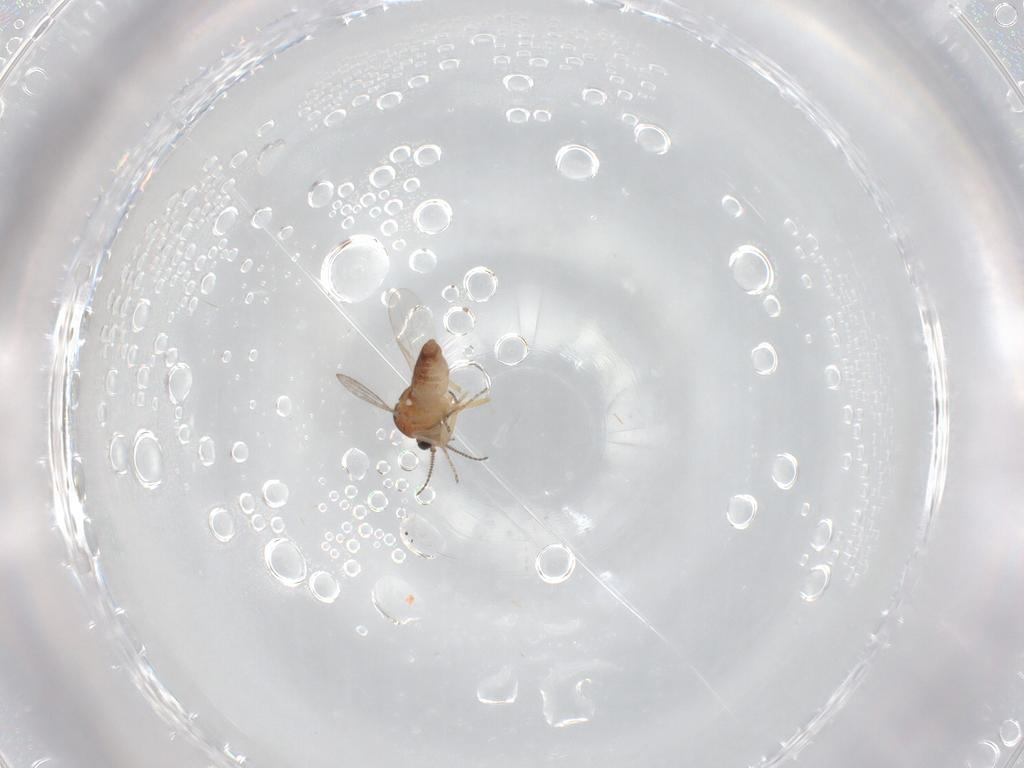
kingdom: Animalia
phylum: Arthropoda
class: Insecta
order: Diptera
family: Ceratopogonidae
